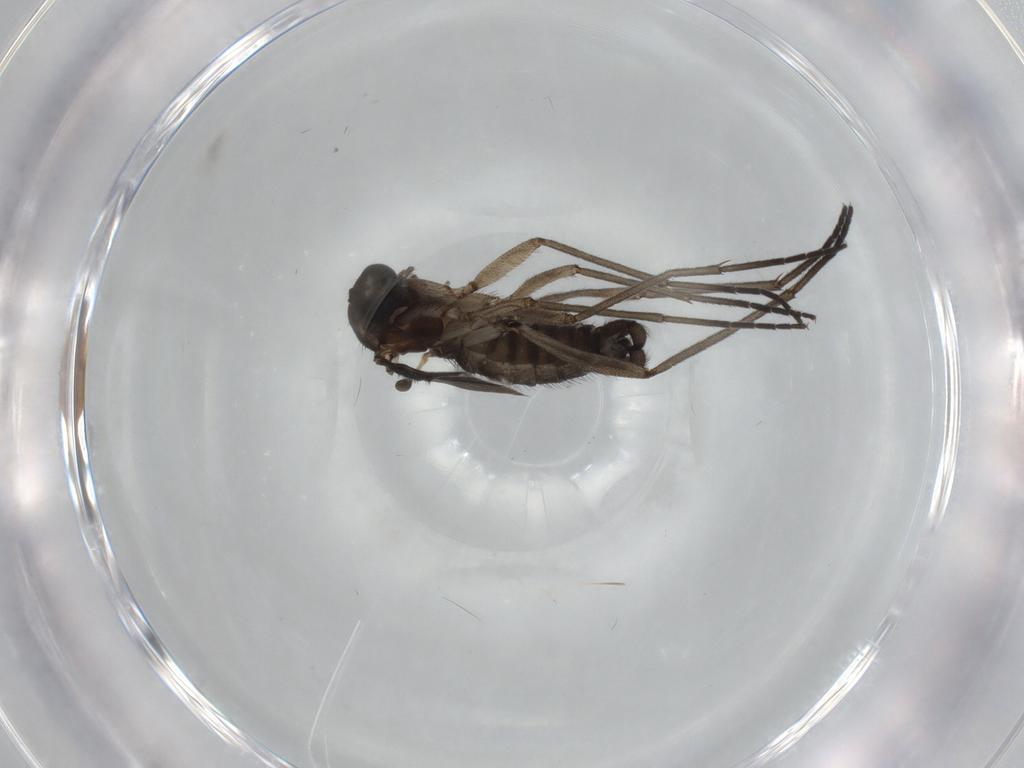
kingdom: Animalia
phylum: Arthropoda
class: Insecta
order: Diptera
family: Sciaridae
